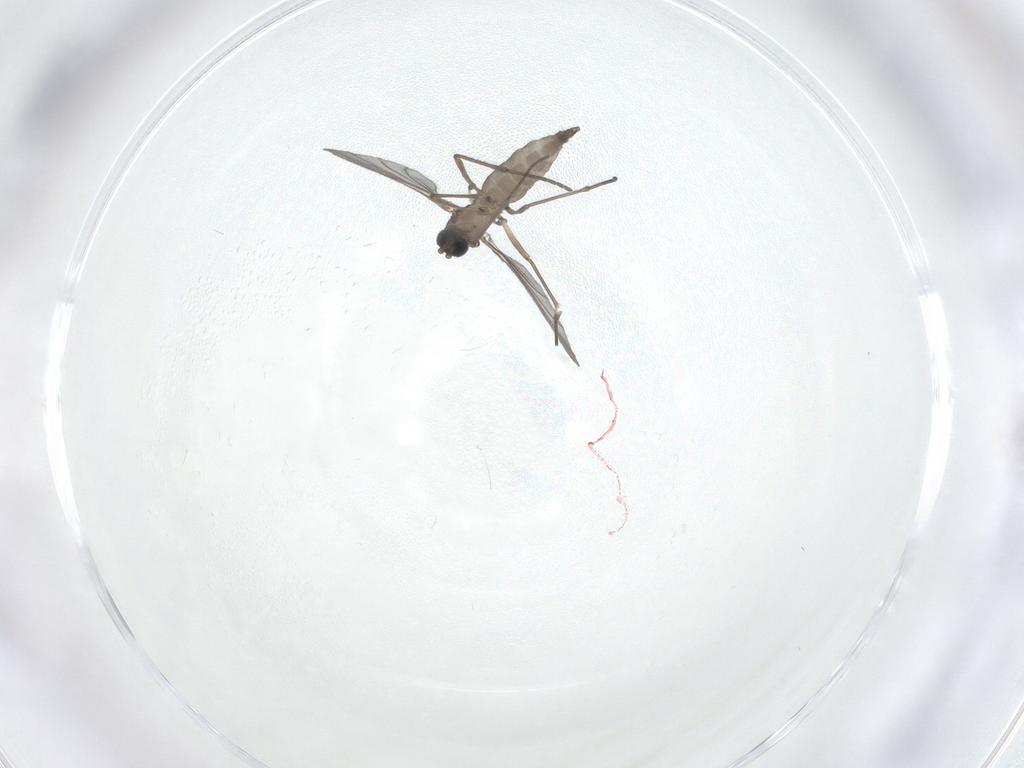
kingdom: Animalia
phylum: Arthropoda
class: Insecta
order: Diptera
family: Sciaridae
